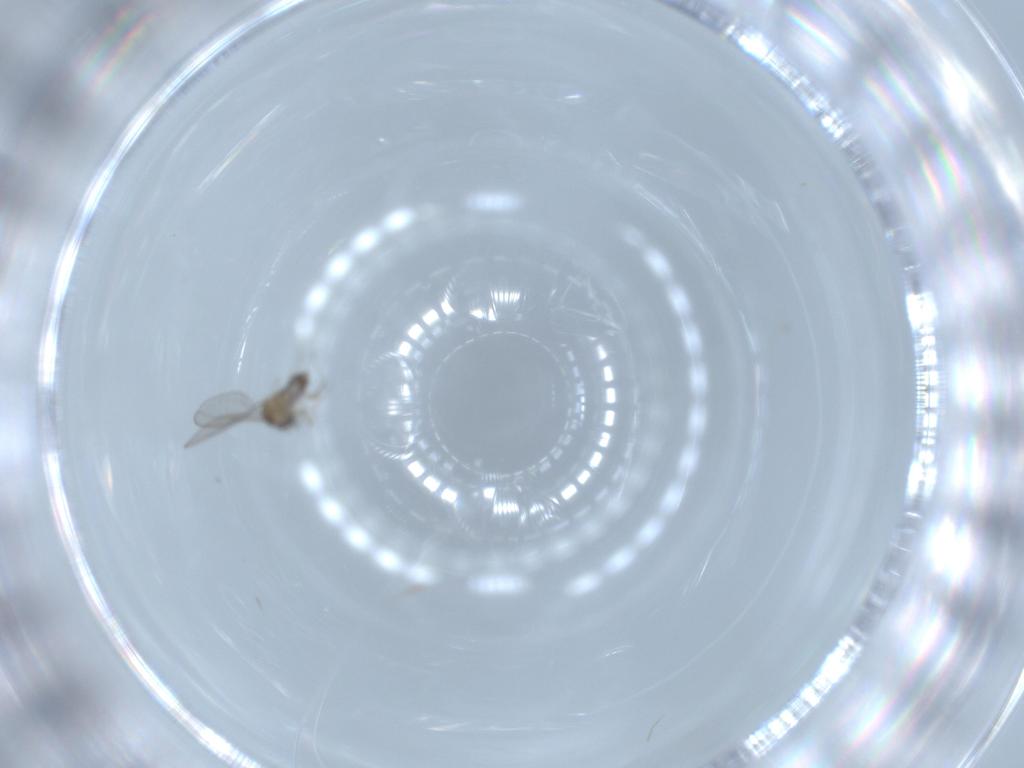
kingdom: Animalia
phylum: Arthropoda
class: Insecta
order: Diptera
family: Cecidomyiidae
